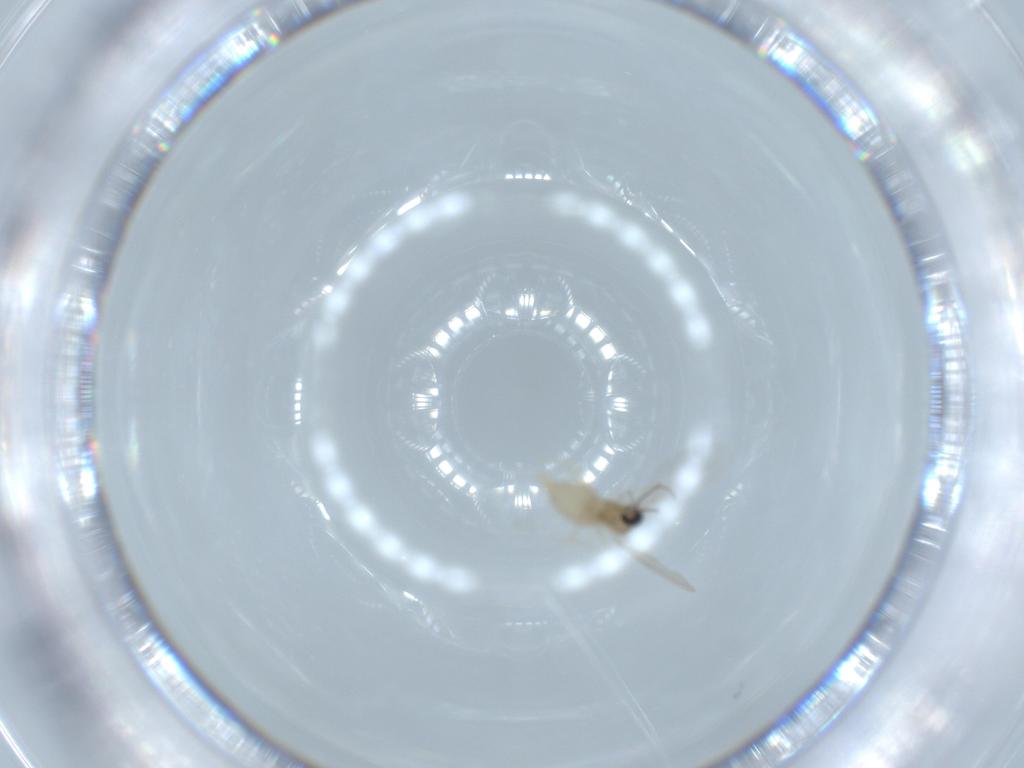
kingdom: Animalia
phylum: Arthropoda
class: Insecta
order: Diptera
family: Cecidomyiidae
